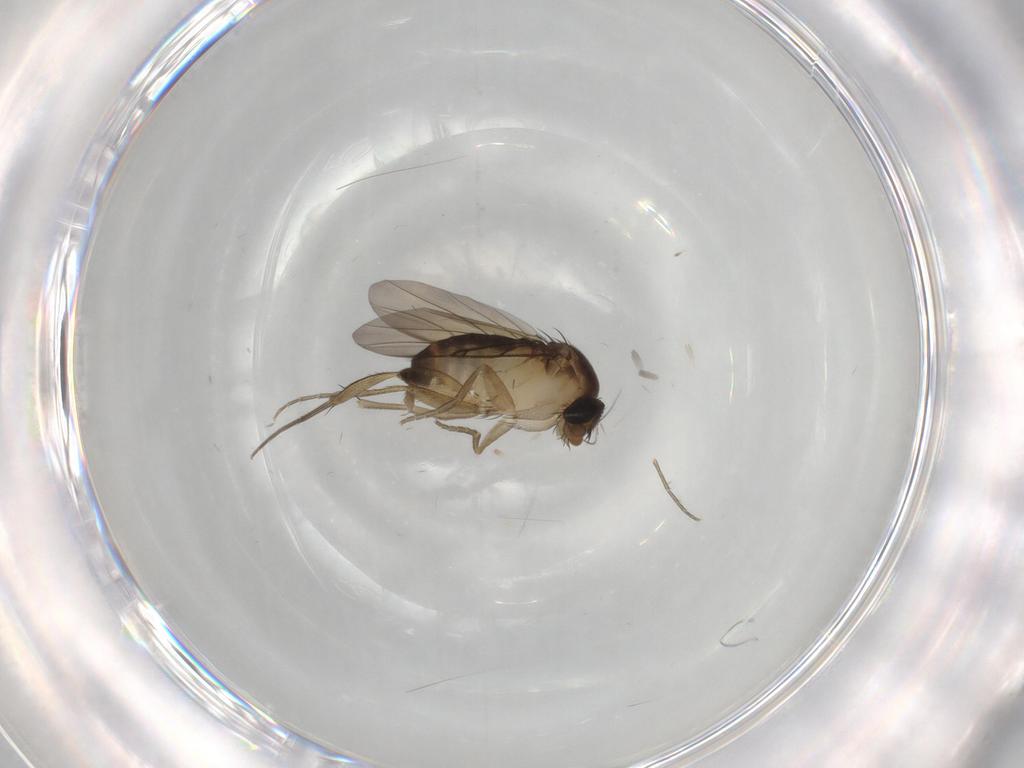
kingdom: Animalia
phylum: Arthropoda
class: Insecta
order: Diptera
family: Phoridae
